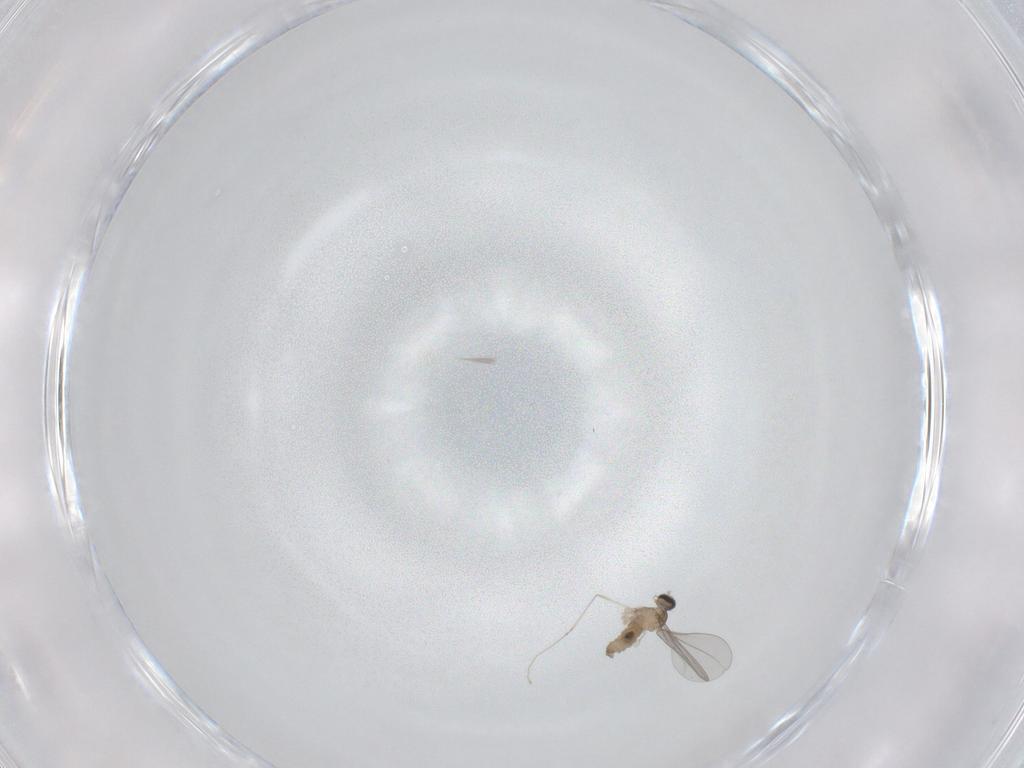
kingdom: Animalia
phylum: Arthropoda
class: Insecta
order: Diptera
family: Cecidomyiidae
